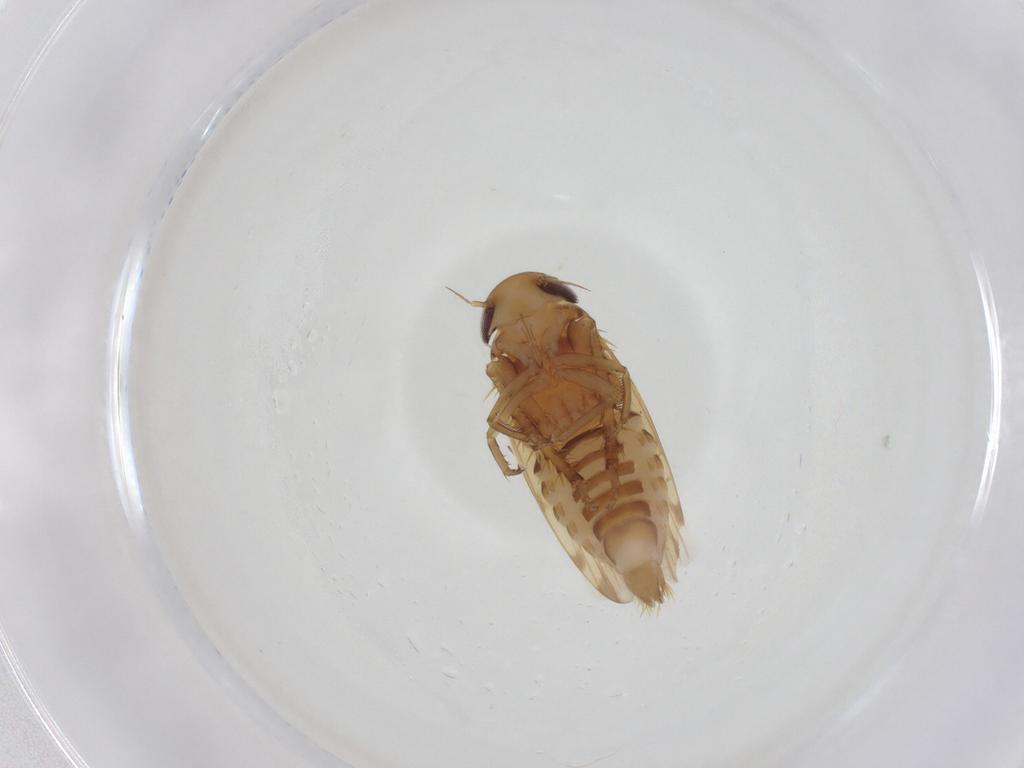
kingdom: Animalia
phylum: Arthropoda
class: Insecta
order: Hemiptera
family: Cicadellidae
